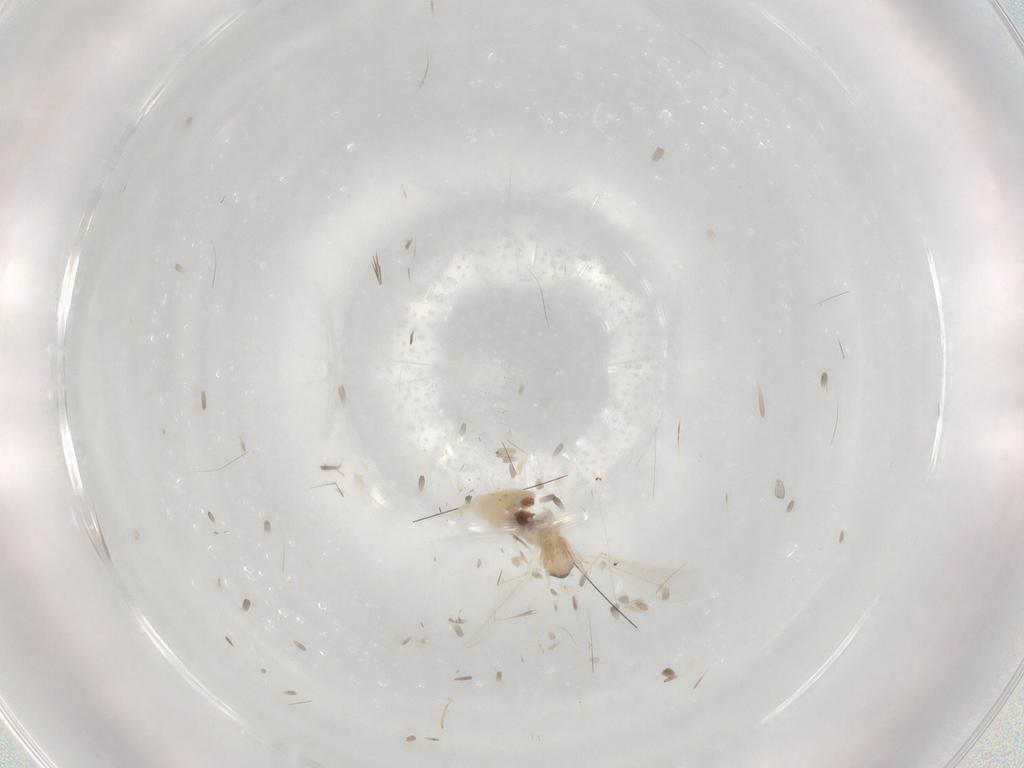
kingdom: Animalia
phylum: Arthropoda
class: Insecta
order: Diptera
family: Cecidomyiidae
